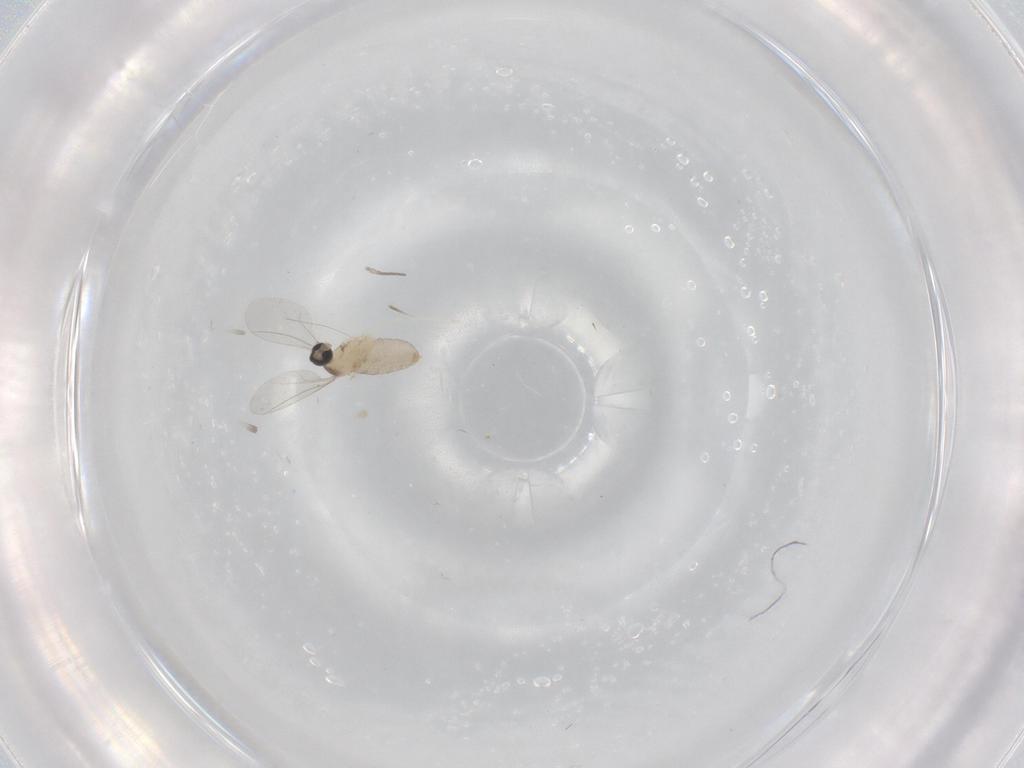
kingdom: Animalia
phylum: Arthropoda
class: Insecta
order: Diptera
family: Cecidomyiidae
